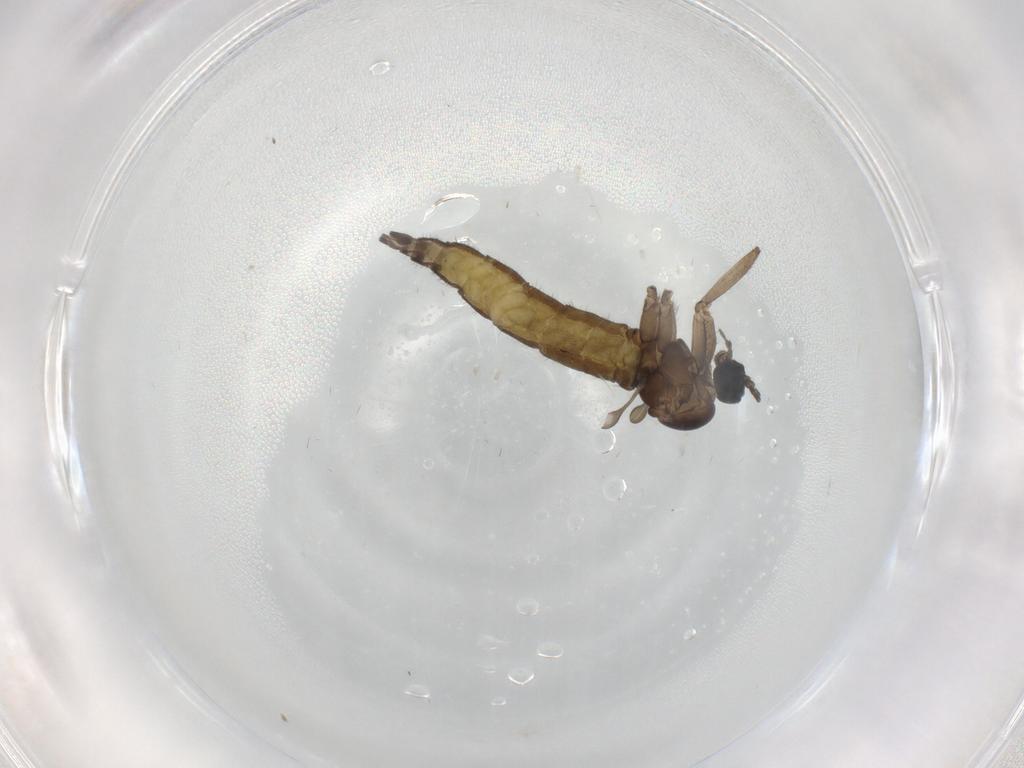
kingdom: Animalia
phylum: Arthropoda
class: Insecta
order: Diptera
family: Sciaridae
